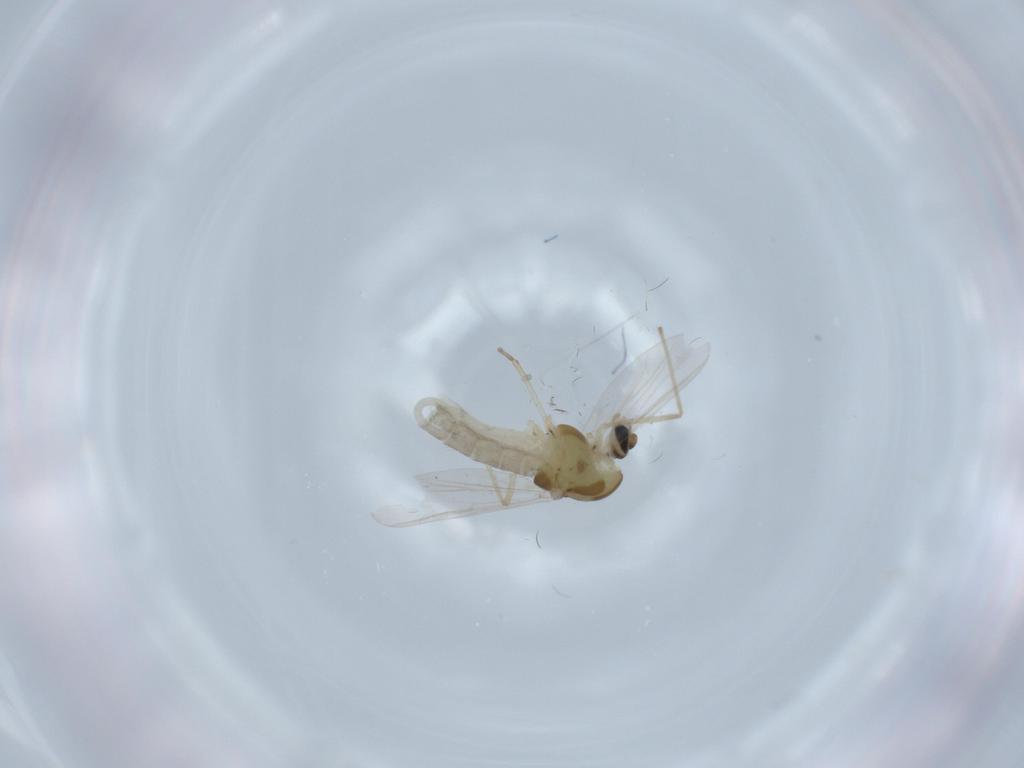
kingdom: Animalia
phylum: Arthropoda
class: Insecta
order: Diptera
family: Chironomidae
